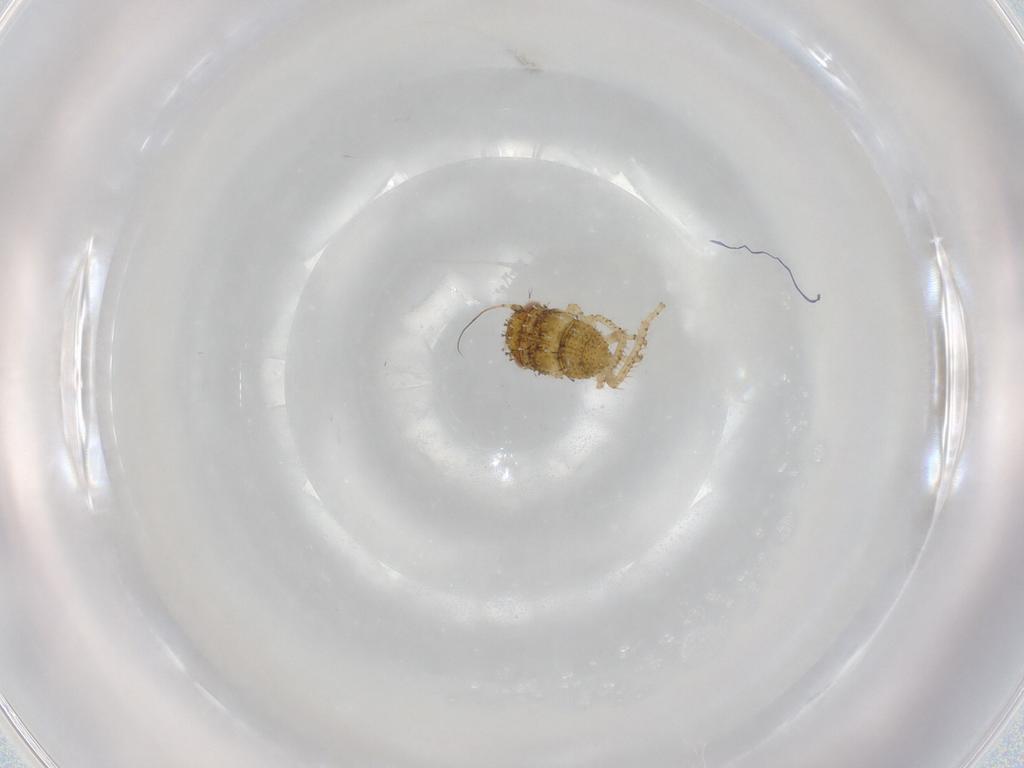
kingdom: Animalia
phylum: Arthropoda
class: Insecta
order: Hemiptera
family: Cicadellidae
